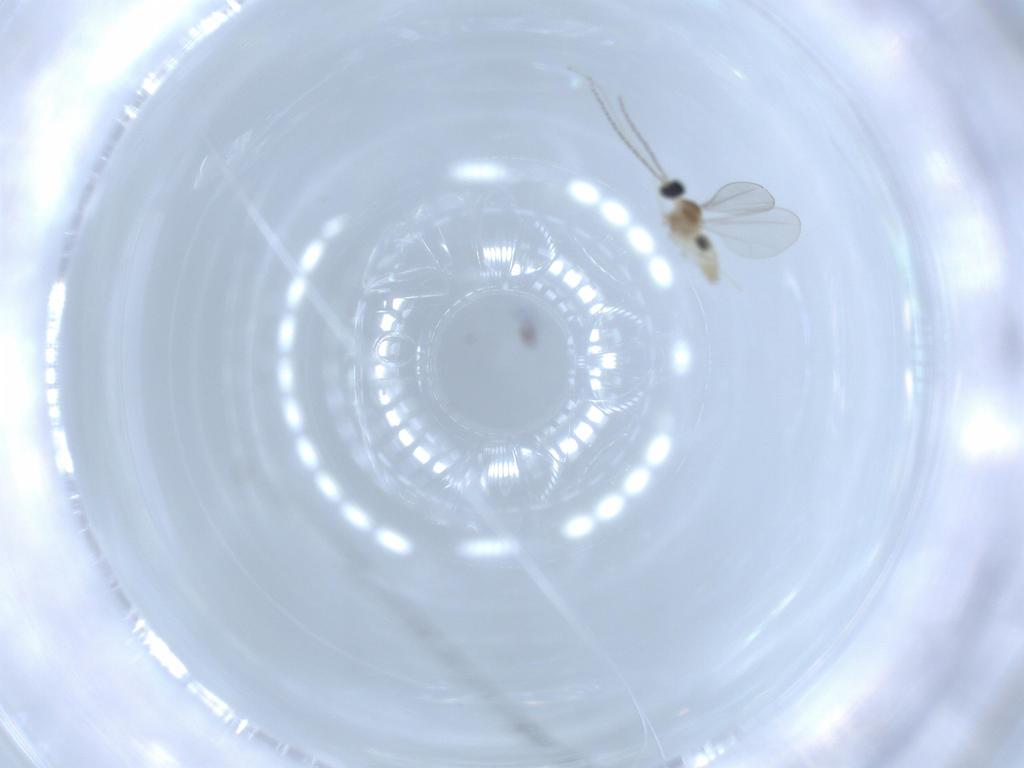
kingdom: Animalia
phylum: Arthropoda
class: Insecta
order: Diptera
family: Cecidomyiidae
